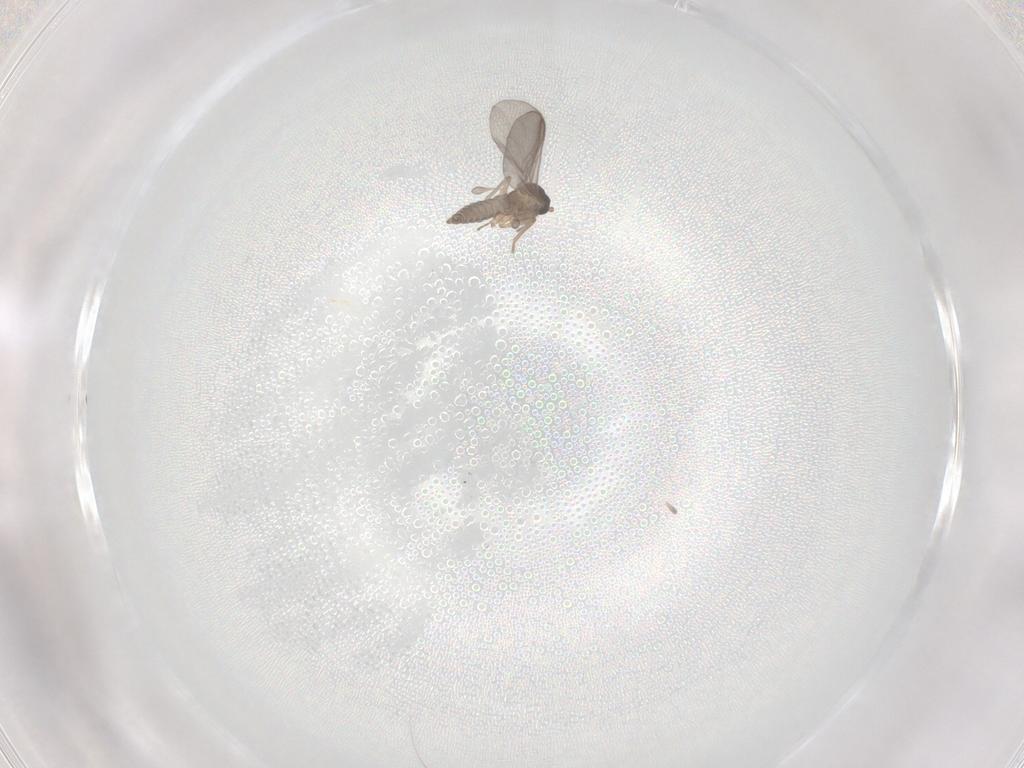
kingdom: Animalia
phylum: Arthropoda
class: Insecta
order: Diptera
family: Sciaridae
